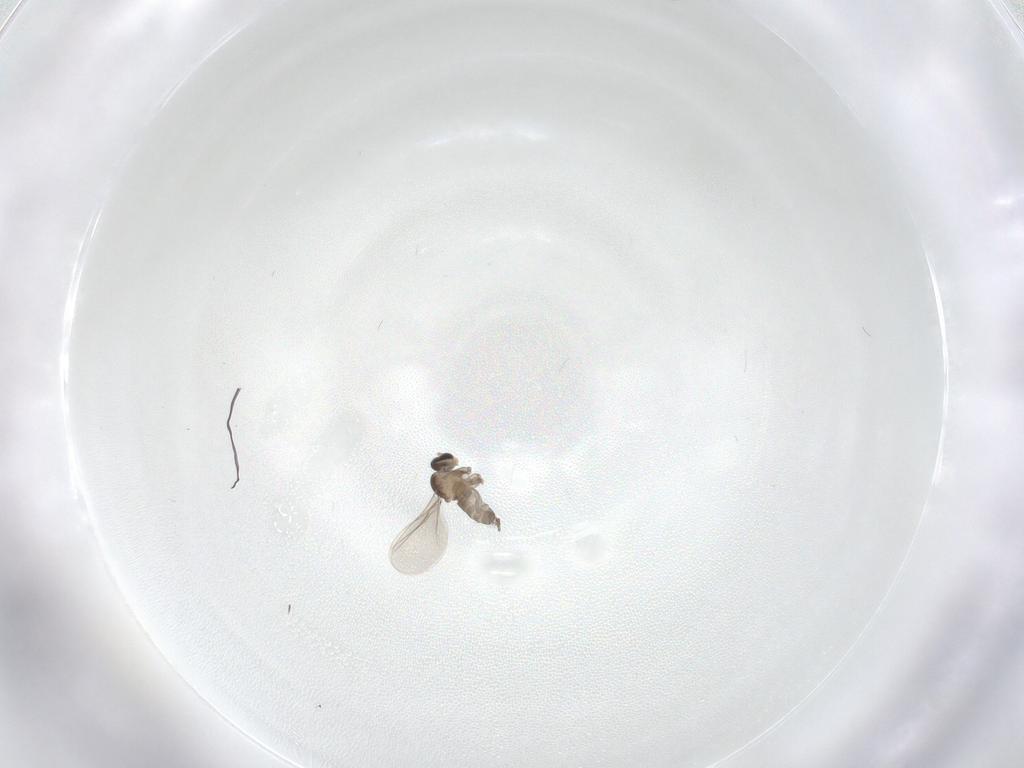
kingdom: Animalia
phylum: Arthropoda
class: Insecta
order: Diptera
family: Cecidomyiidae
